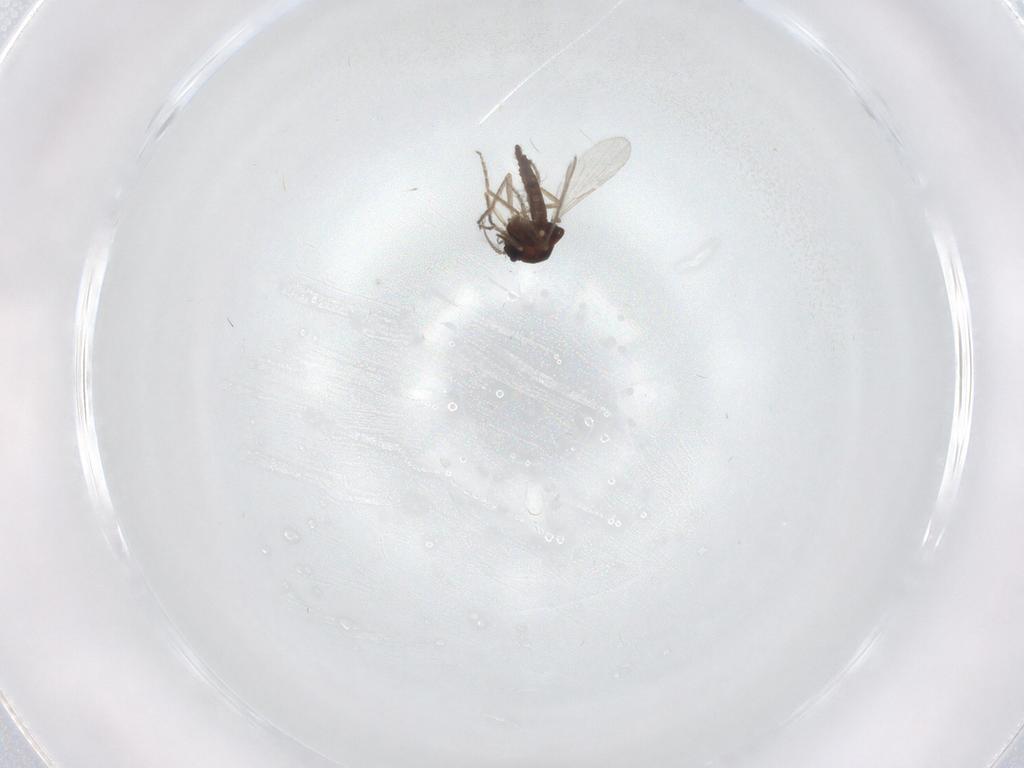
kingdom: Animalia
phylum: Arthropoda
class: Insecta
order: Diptera
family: Ceratopogonidae
